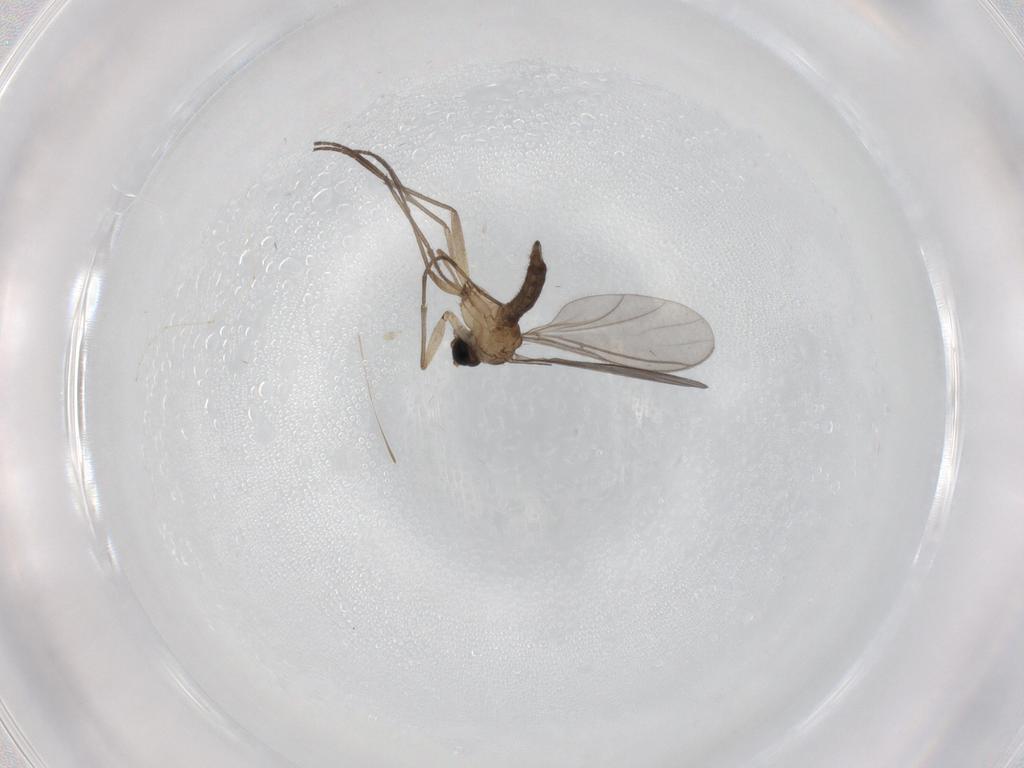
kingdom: Animalia
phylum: Arthropoda
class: Insecta
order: Diptera
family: Sciaridae
